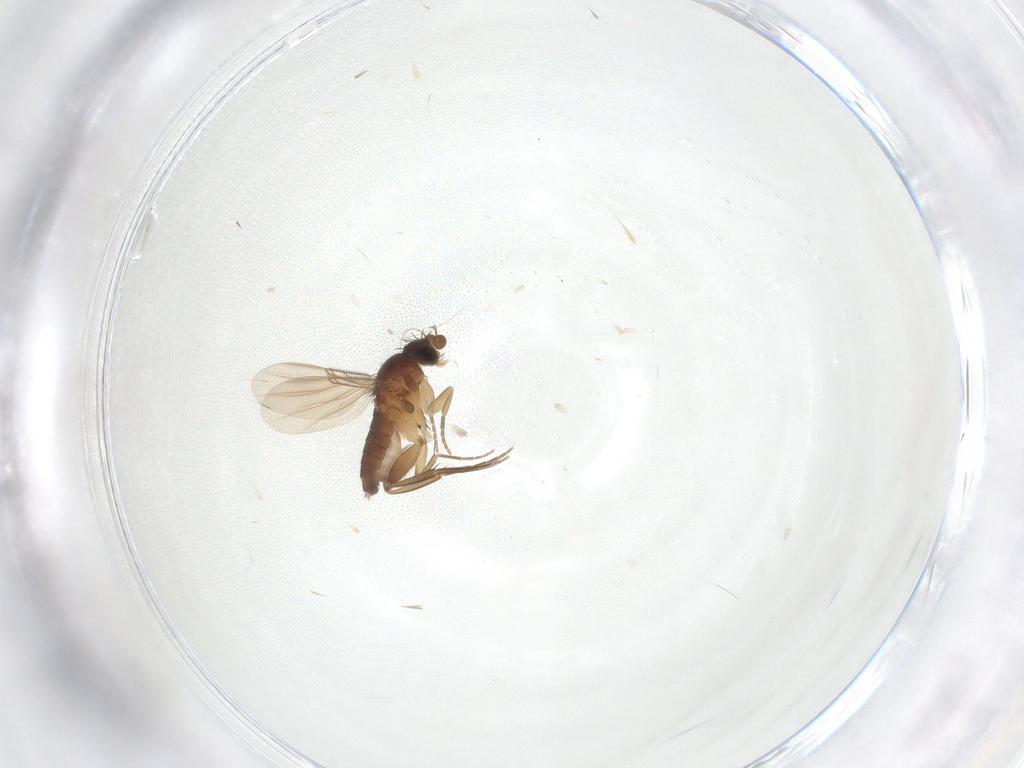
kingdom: Animalia
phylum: Arthropoda
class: Insecta
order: Diptera
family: Phoridae
